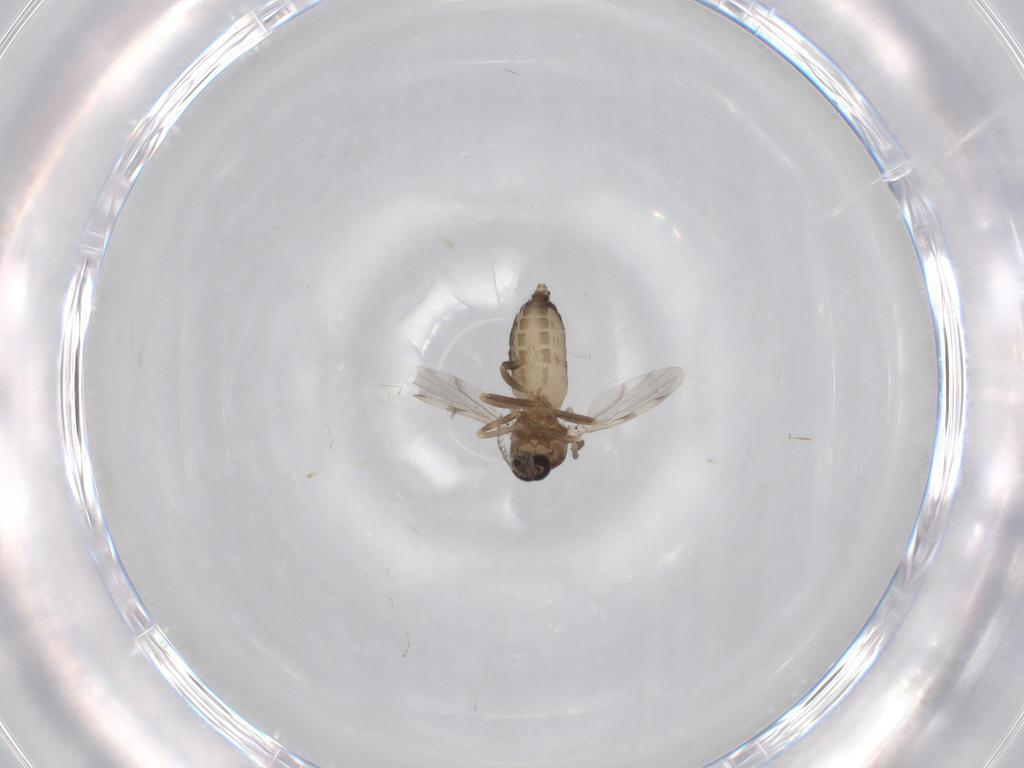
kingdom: Animalia
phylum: Arthropoda
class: Insecta
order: Diptera
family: Ceratopogonidae
